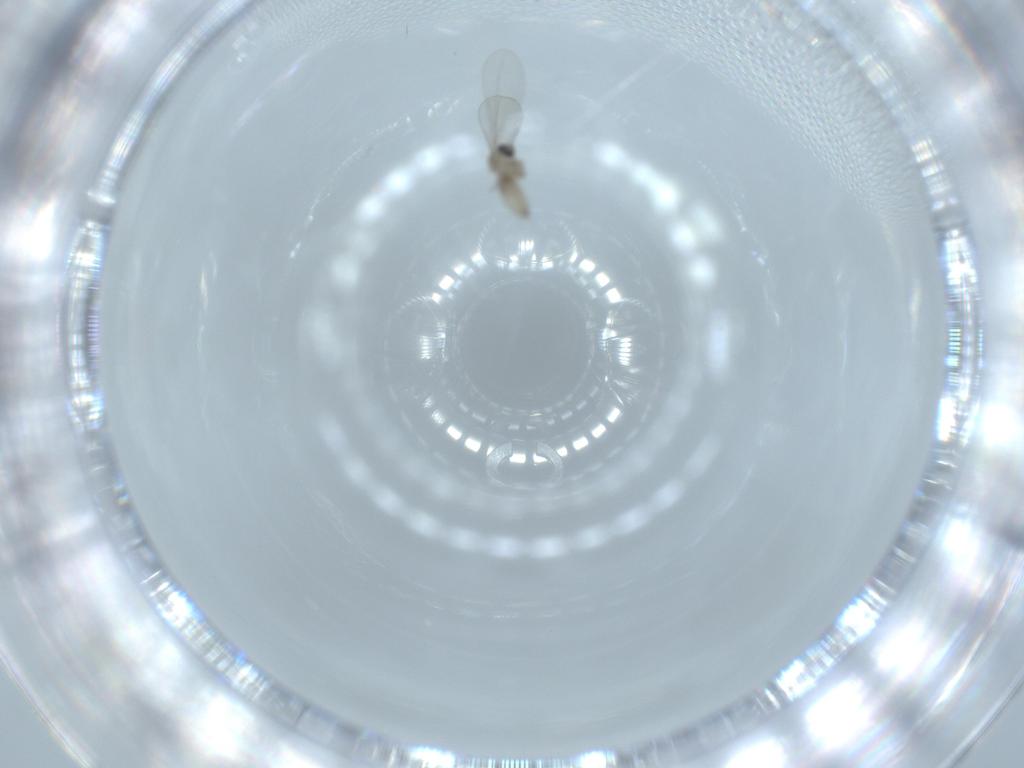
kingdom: Animalia
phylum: Arthropoda
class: Insecta
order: Diptera
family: Cecidomyiidae
